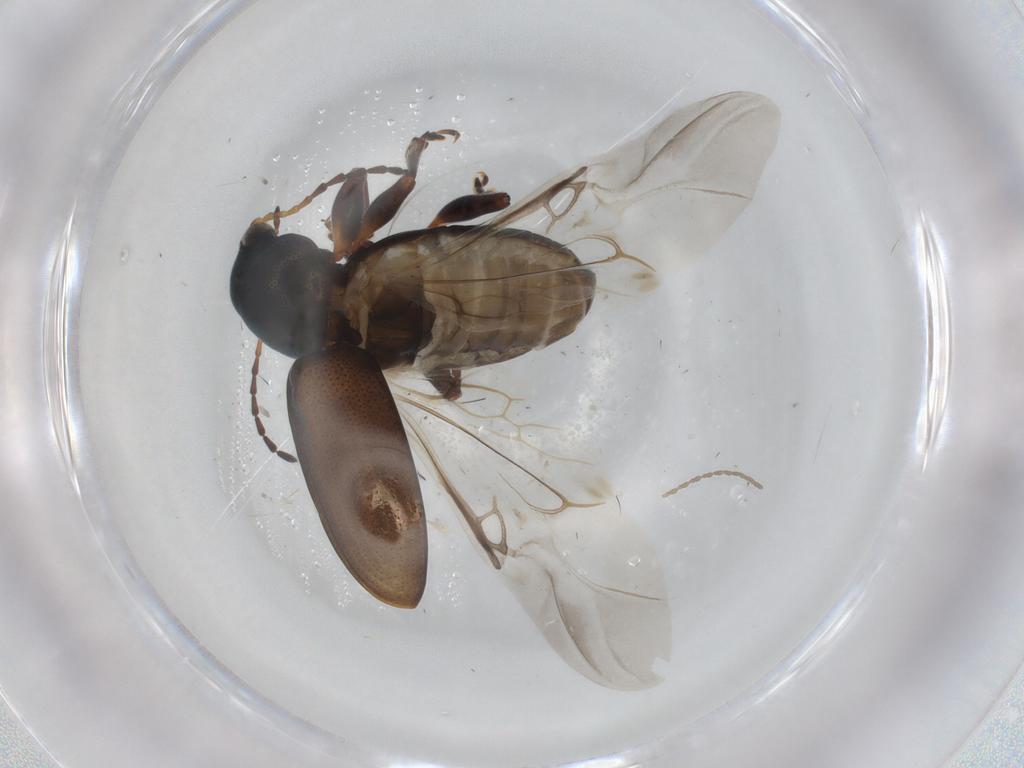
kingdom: Animalia
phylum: Arthropoda
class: Insecta
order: Coleoptera
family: Chrysomelidae
